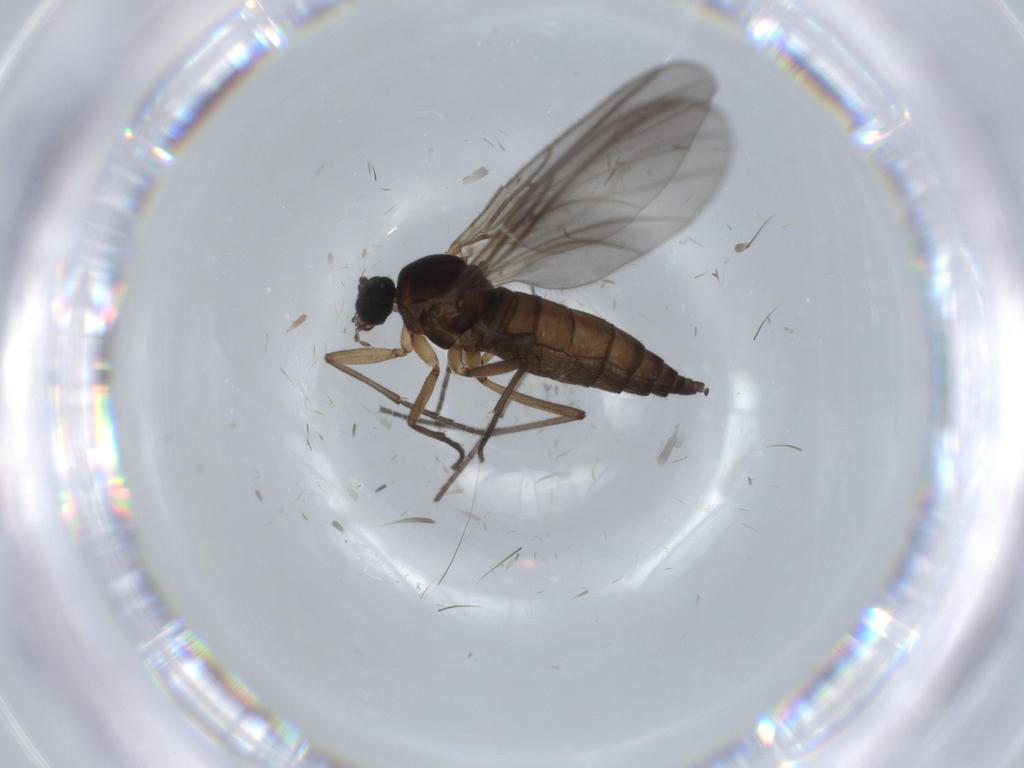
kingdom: Animalia
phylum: Arthropoda
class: Insecta
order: Diptera
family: Sciaridae
